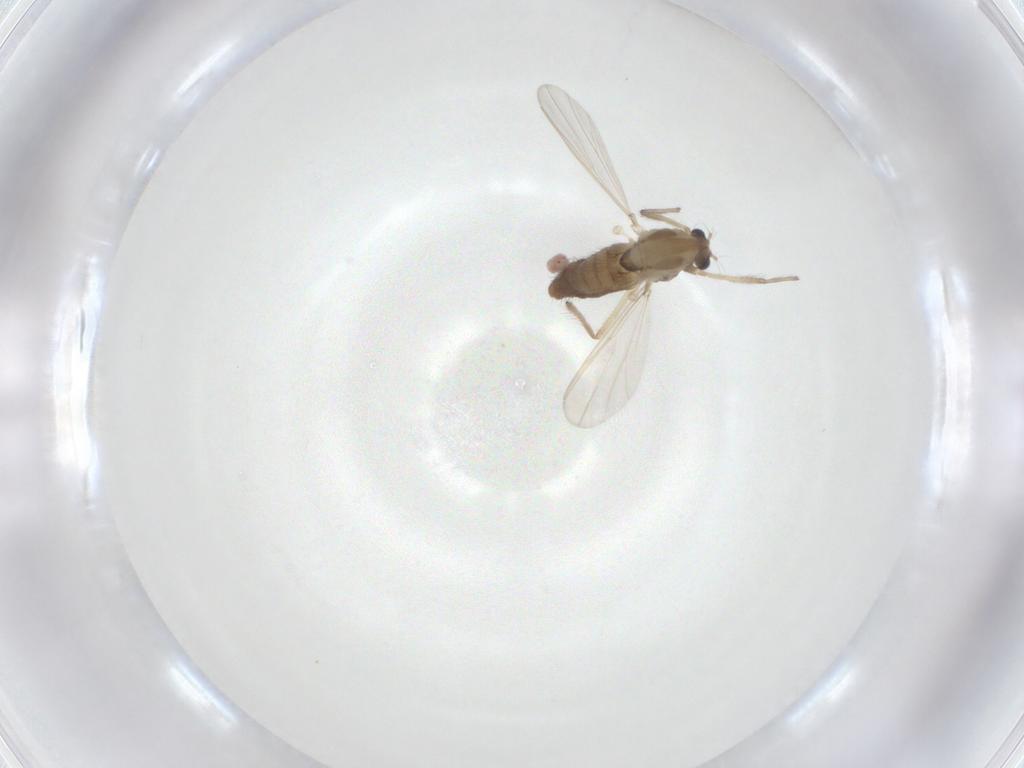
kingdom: Animalia
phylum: Arthropoda
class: Insecta
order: Diptera
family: Chironomidae
